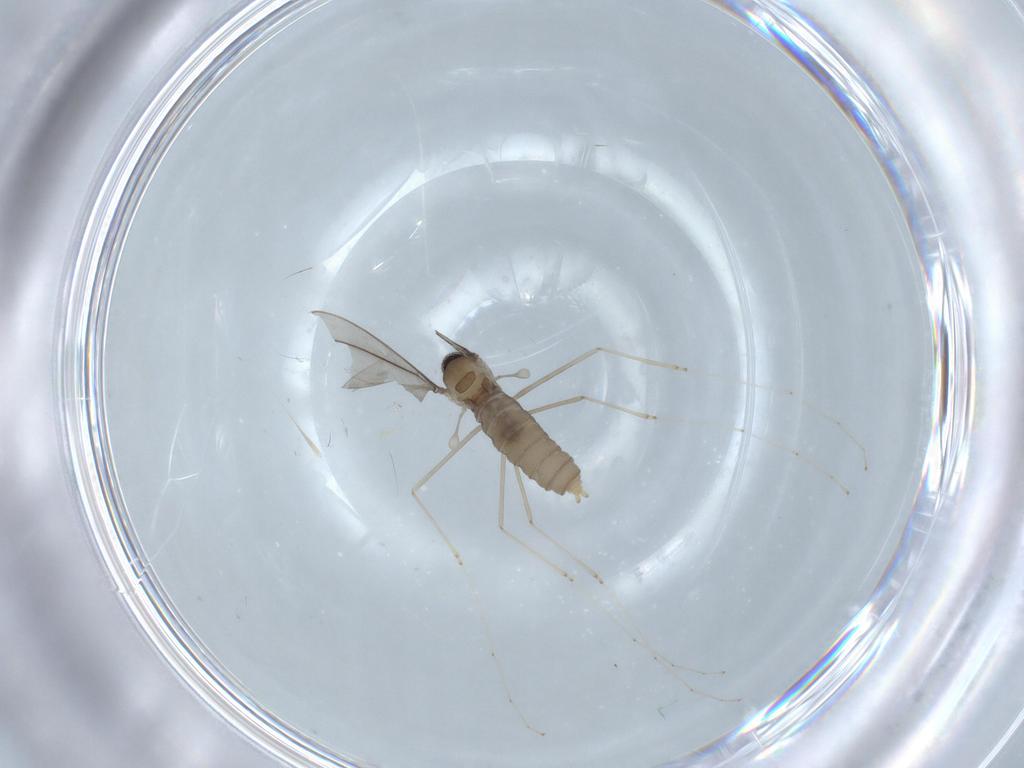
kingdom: Animalia
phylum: Arthropoda
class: Insecta
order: Diptera
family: Cecidomyiidae
